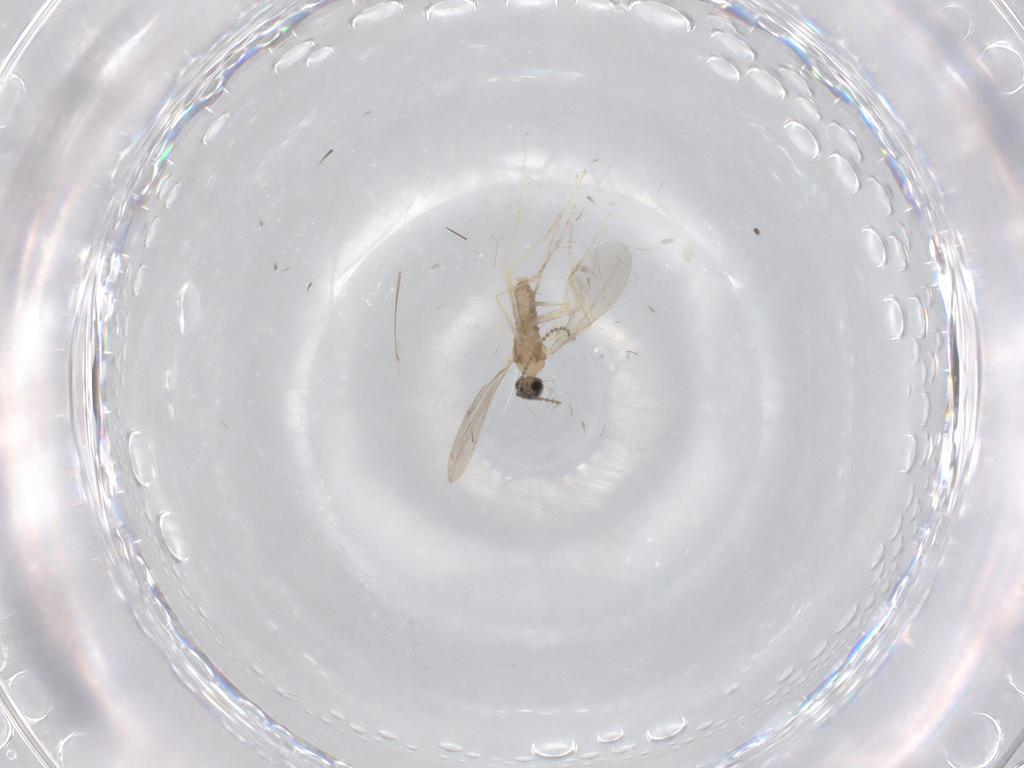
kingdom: Animalia
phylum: Arthropoda
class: Insecta
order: Diptera
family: Cecidomyiidae
